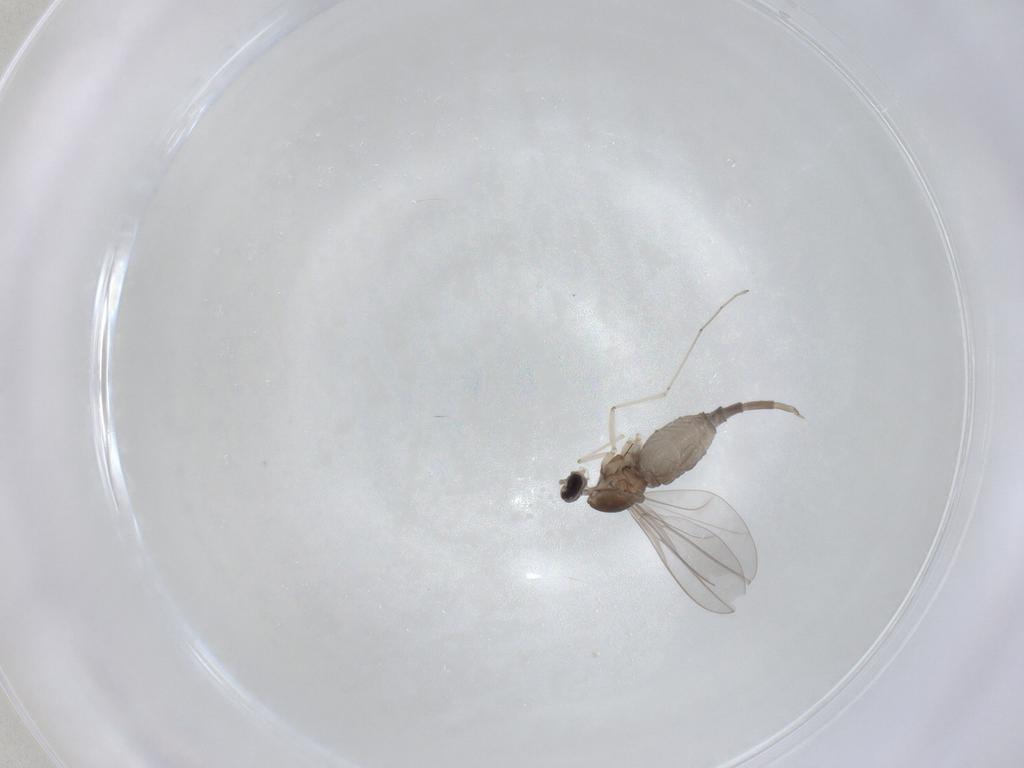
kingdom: Animalia
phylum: Arthropoda
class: Insecta
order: Diptera
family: Cecidomyiidae
